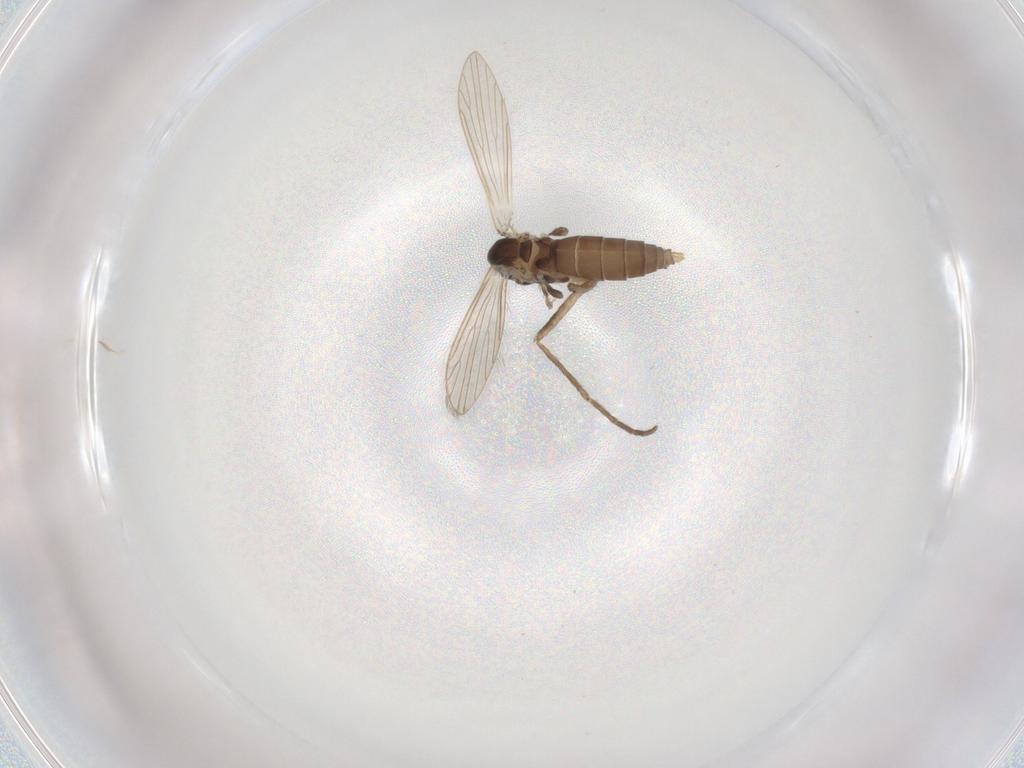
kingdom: Animalia
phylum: Arthropoda
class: Insecta
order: Diptera
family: Psychodidae
